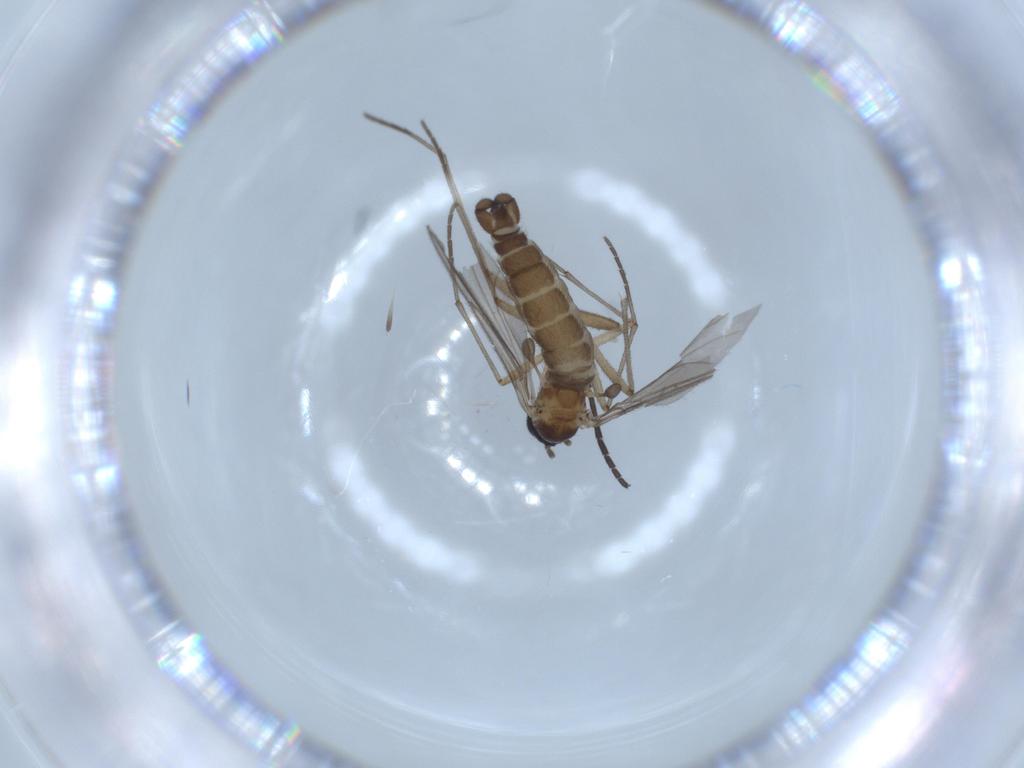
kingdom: Animalia
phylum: Arthropoda
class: Insecta
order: Diptera
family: Sciaridae
